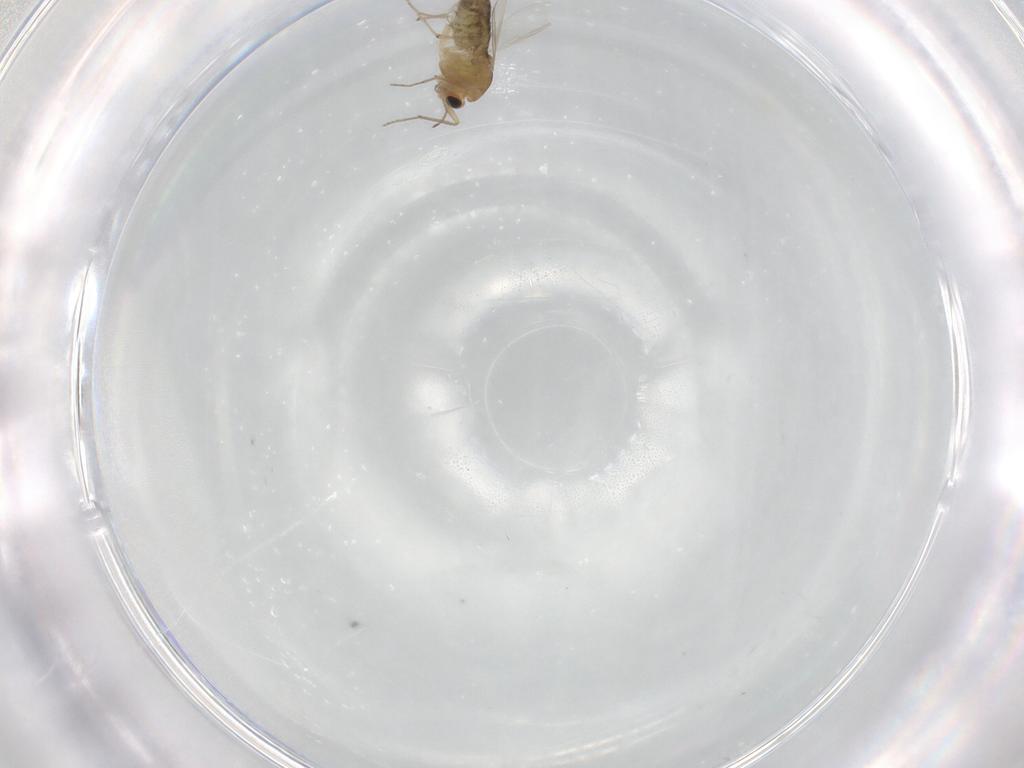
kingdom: Animalia
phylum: Arthropoda
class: Insecta
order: Diptera
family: Chironomidae
